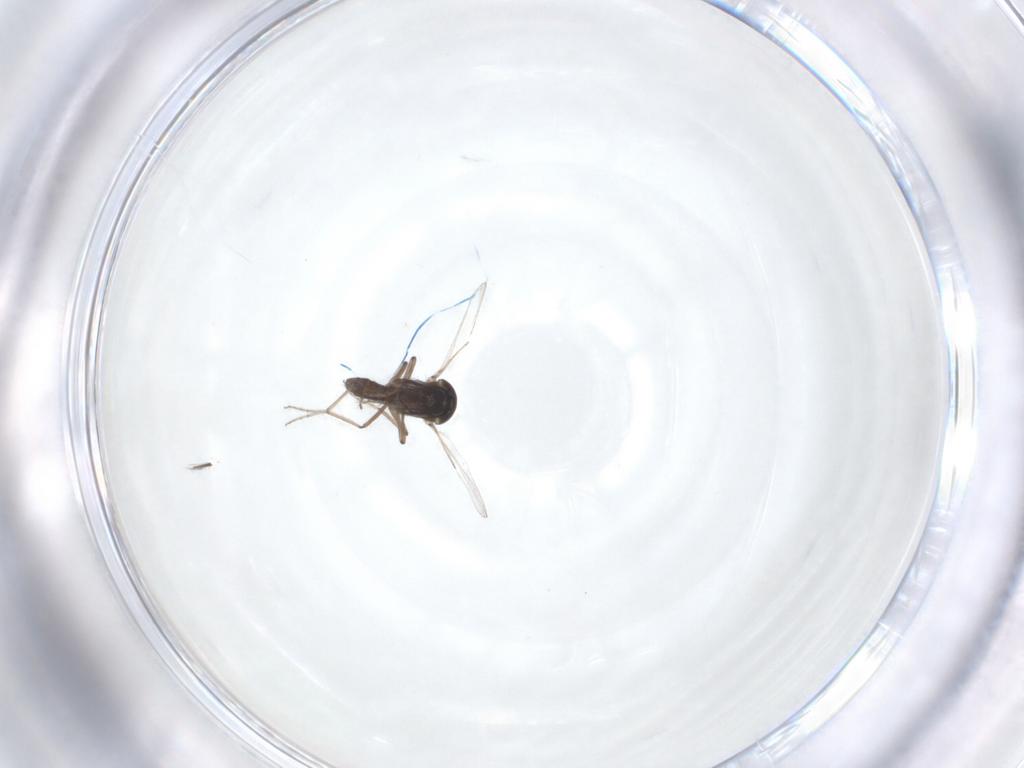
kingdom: Animalia
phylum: Arthropoda
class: Insecta
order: Diptera
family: Ceratopogonidae
